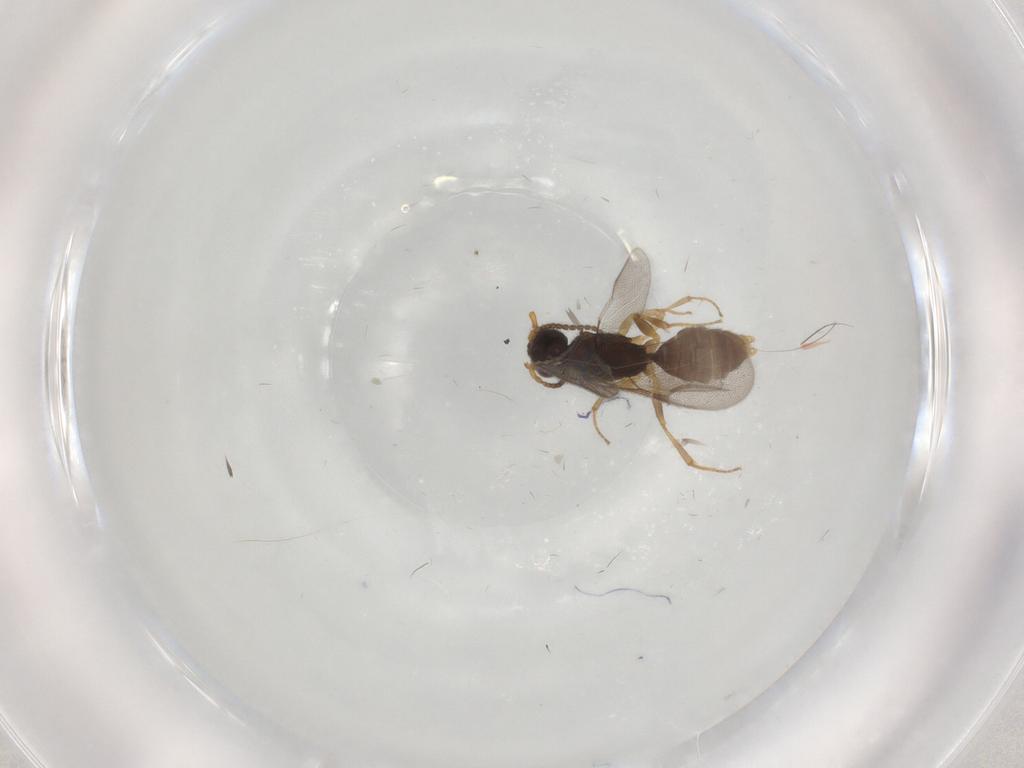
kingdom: Animalia
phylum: Arthropoda
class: Insecta
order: Hymenoptera
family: Bethylidae
